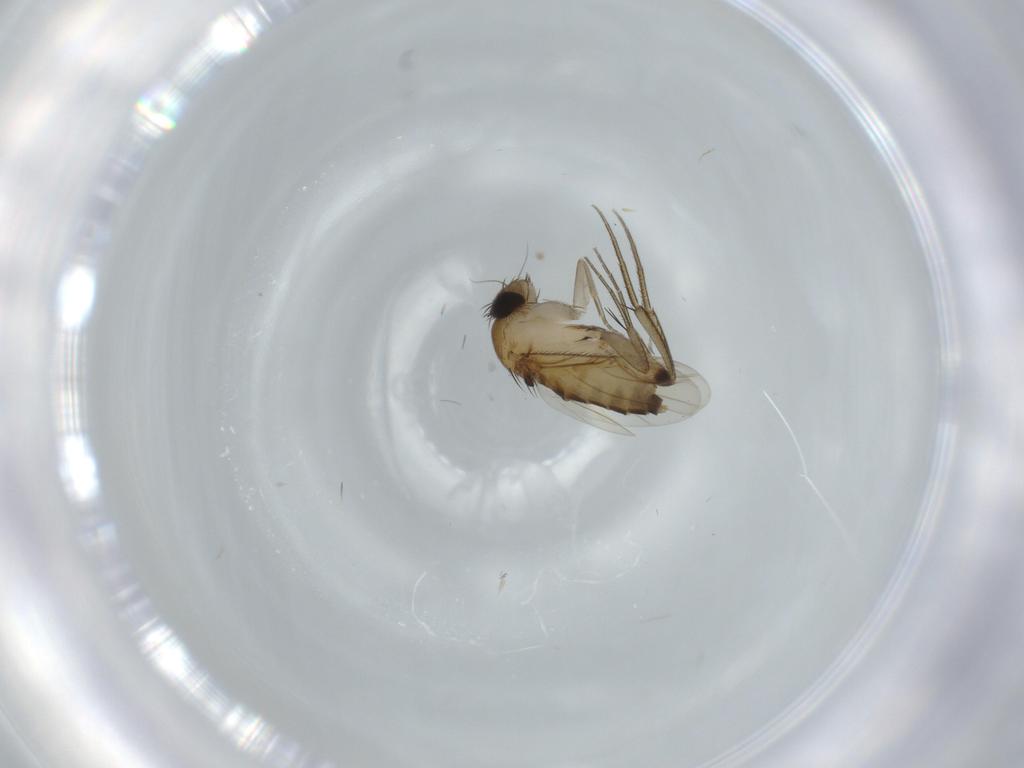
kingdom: Animalia
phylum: Arthropoda
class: Insecta
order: Diptera
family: Phoridae
